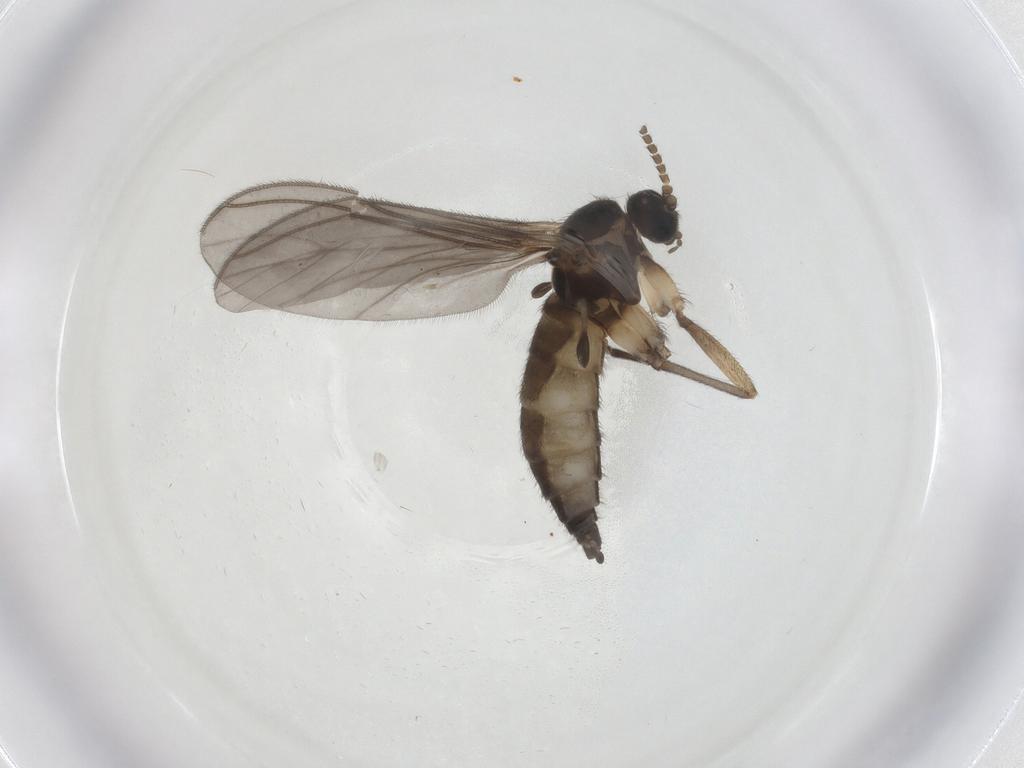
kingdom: Animalia
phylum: Arthropoda
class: Insecta
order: Diptera
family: Sciaridae
